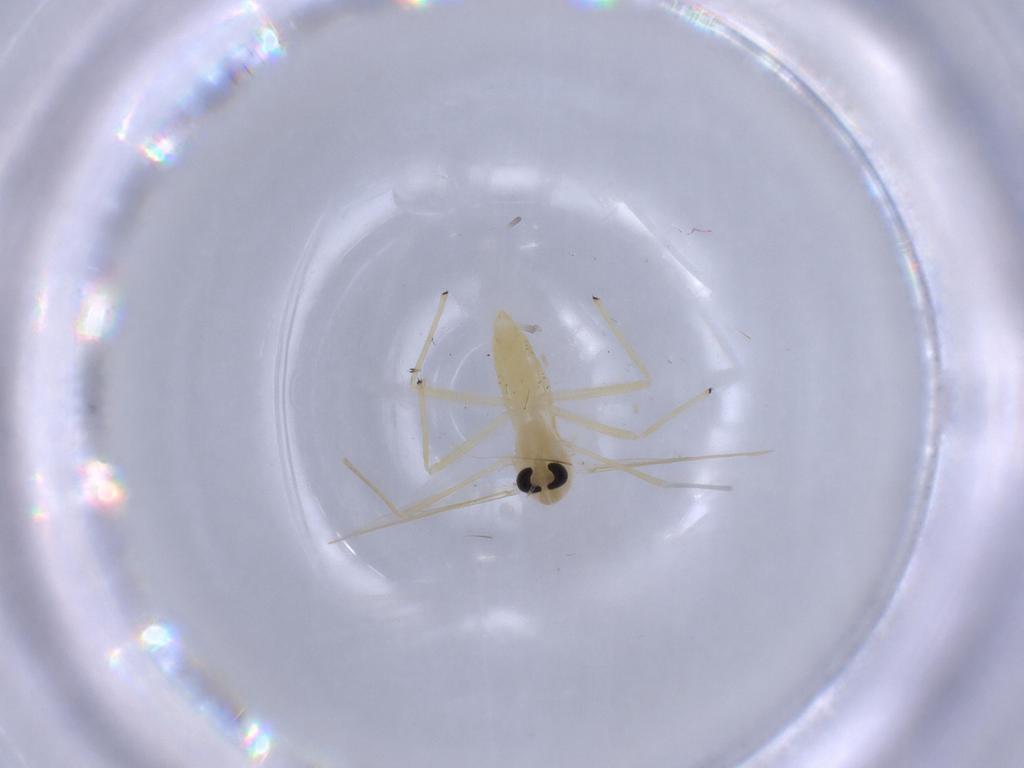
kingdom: Animalia
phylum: Arthropoda
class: Insecta
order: Diptera
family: Chironomidae
